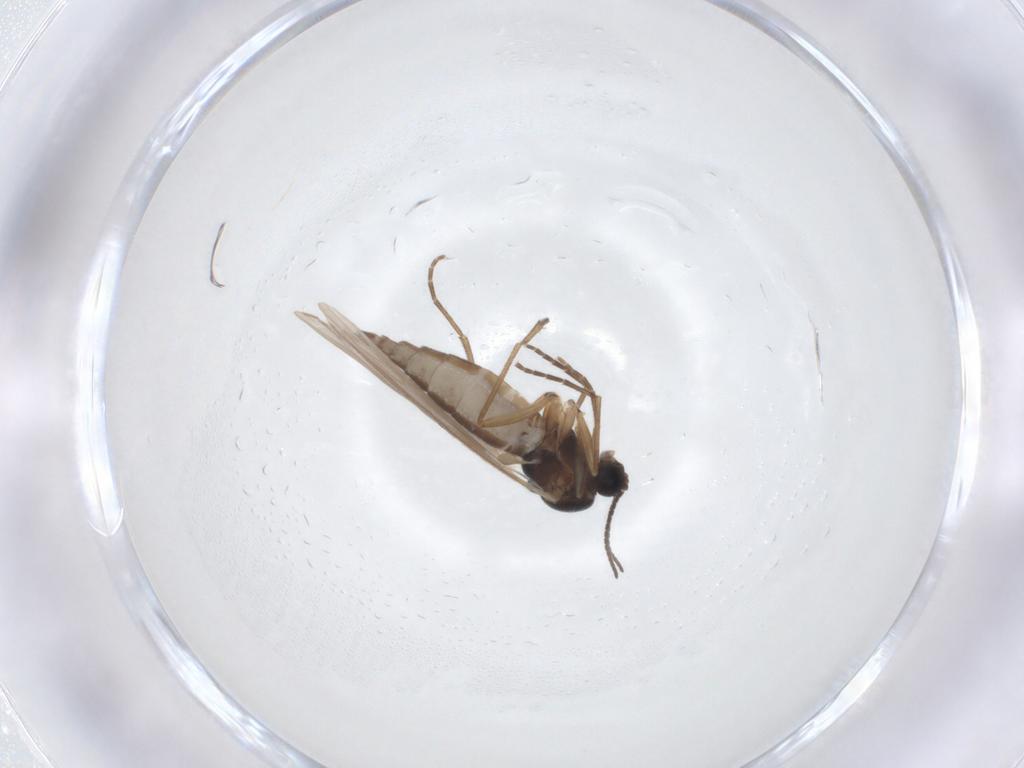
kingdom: Animalia
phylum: Arthropoda
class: Insecta
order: Diptera
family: Sciaridae
